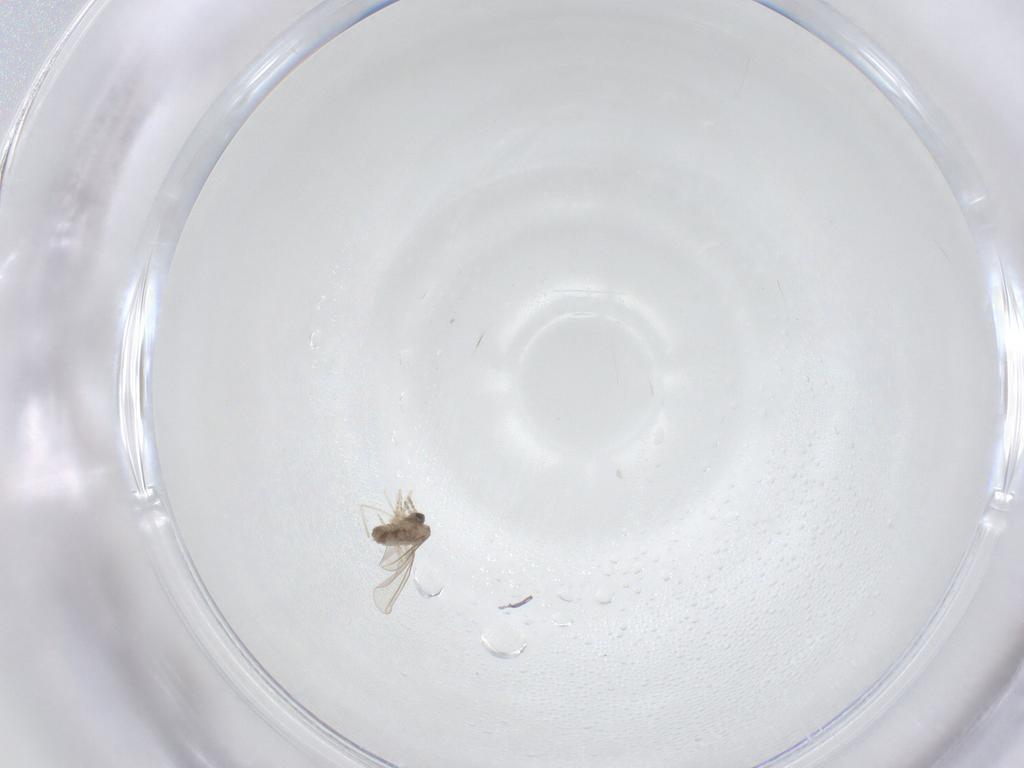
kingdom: Animalia
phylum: Arthropoda
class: Insecta
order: Diptera
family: Cecidomyiidae
